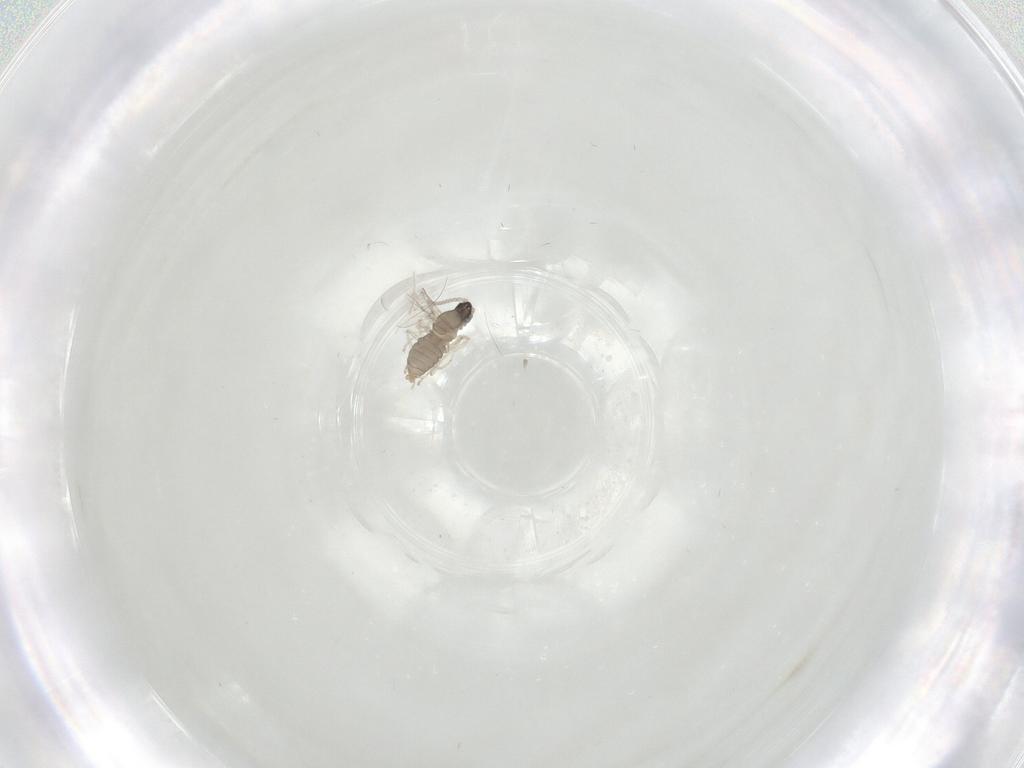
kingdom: Animalia
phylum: Arthropoda
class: Insecta
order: Diptera
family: Cecidomyiidae
